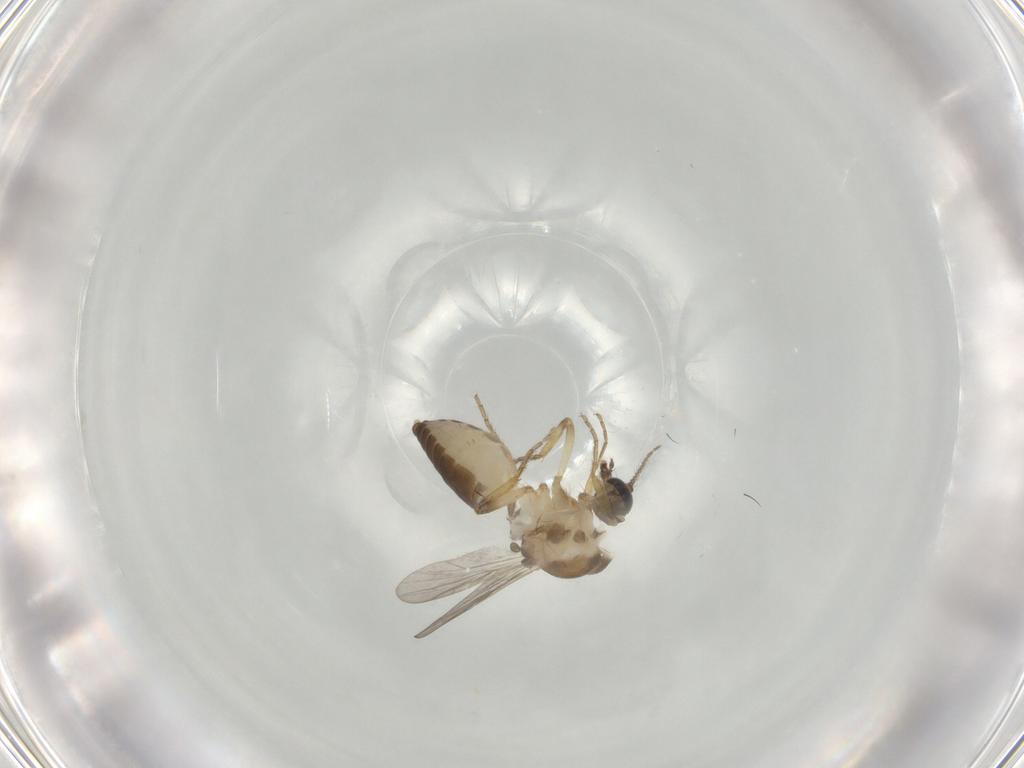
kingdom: Animalia
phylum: Arthropoda
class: Insecta
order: Diptera
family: Ceratopogonidae
